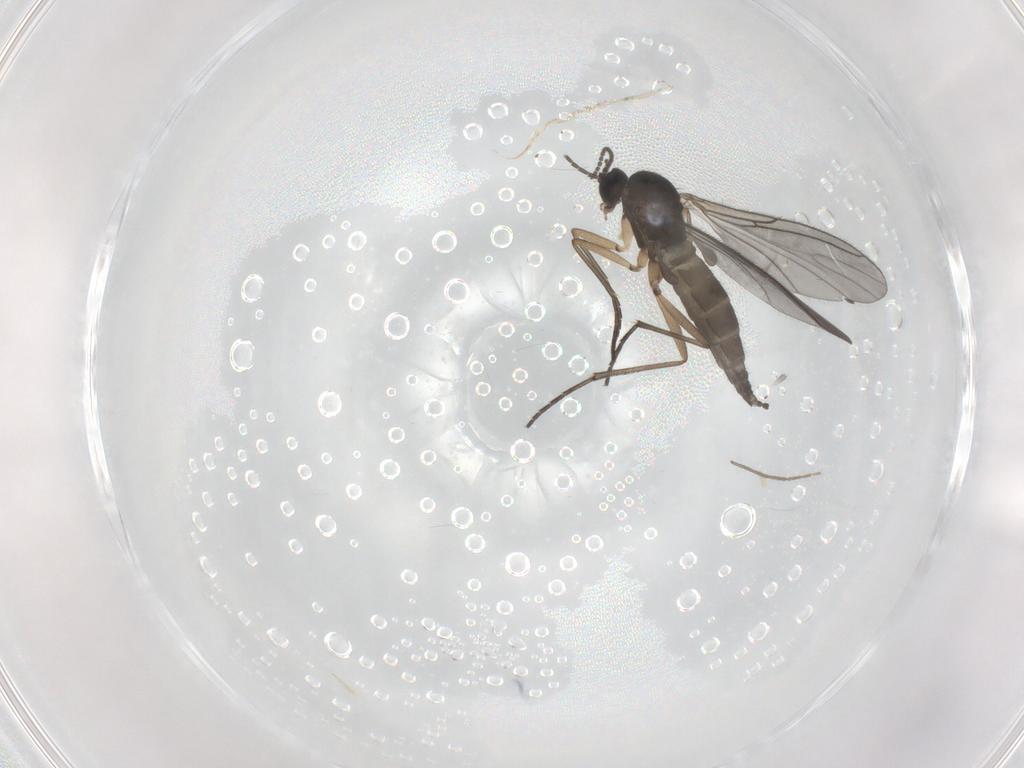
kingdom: Animalia
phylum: Arthropoda
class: Insecta
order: Diptera
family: Sciaridae
